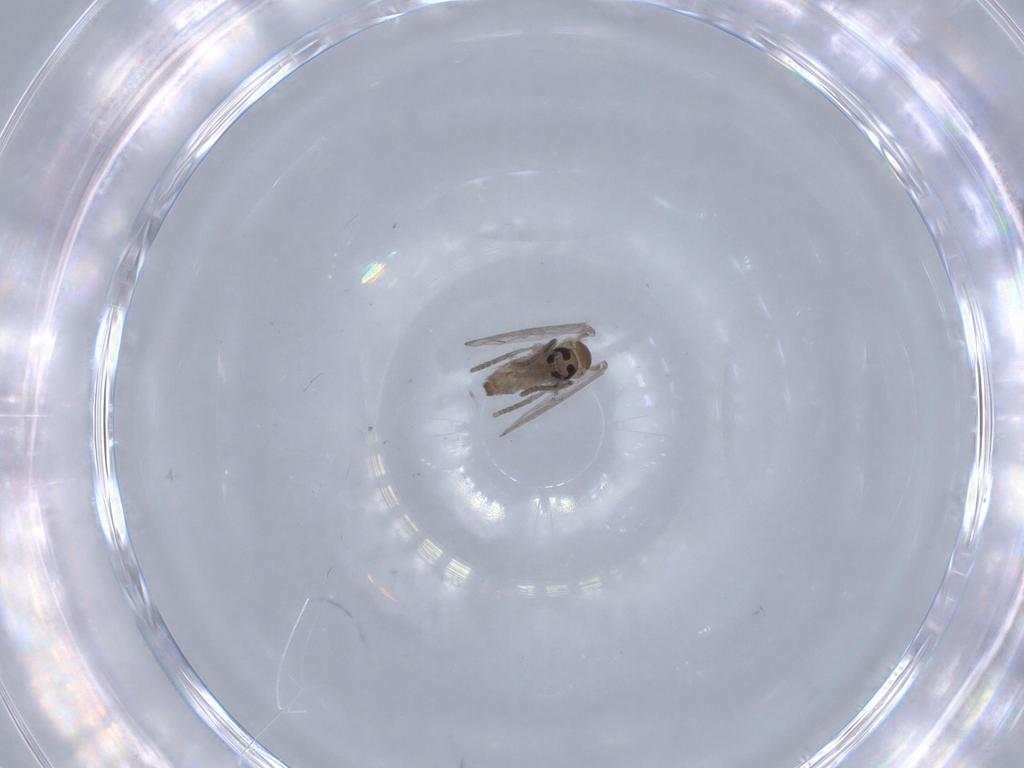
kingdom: Animalia
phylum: Arthropoda
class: Insecta
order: Diptera
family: Psychodidae
